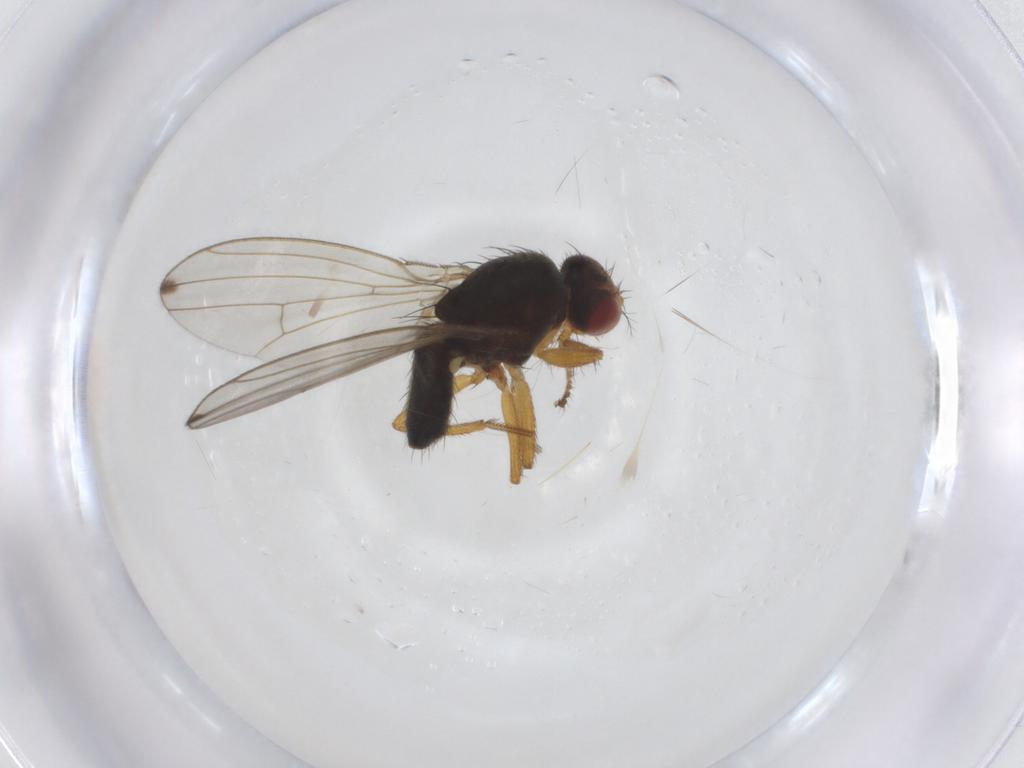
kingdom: Animalia
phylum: Arthropoda
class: Insecta
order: Diptera
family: Drosophilidae
